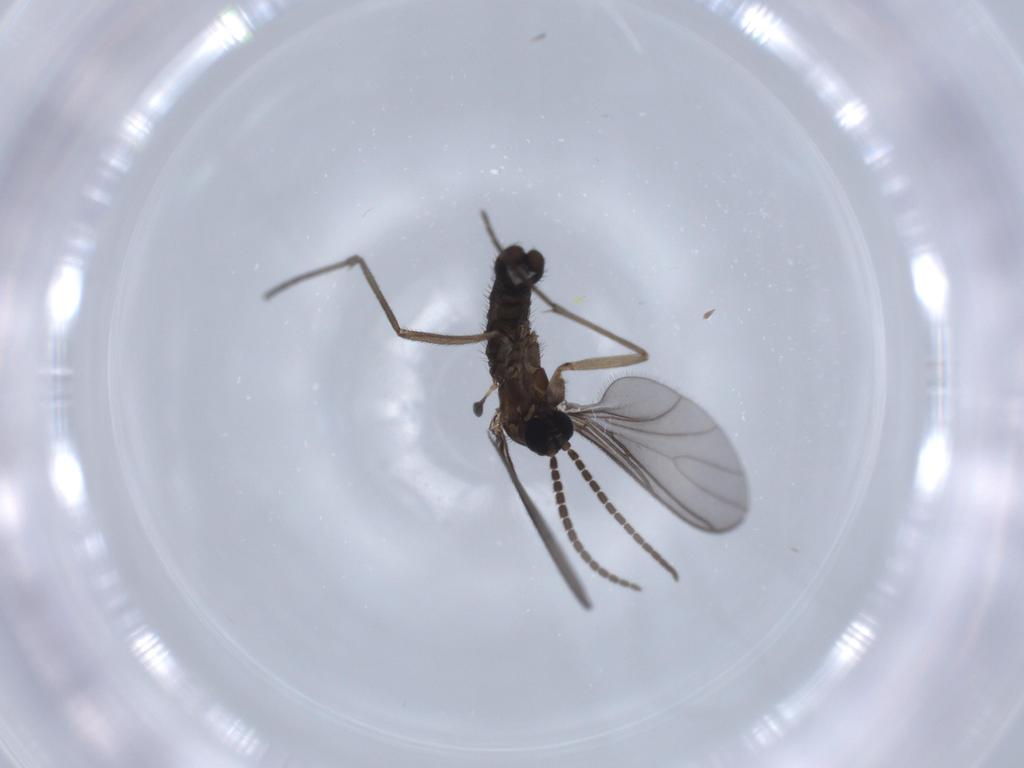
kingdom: Animalia
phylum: Arthropoda
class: Insecta
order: Diptera
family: Sciaridae
